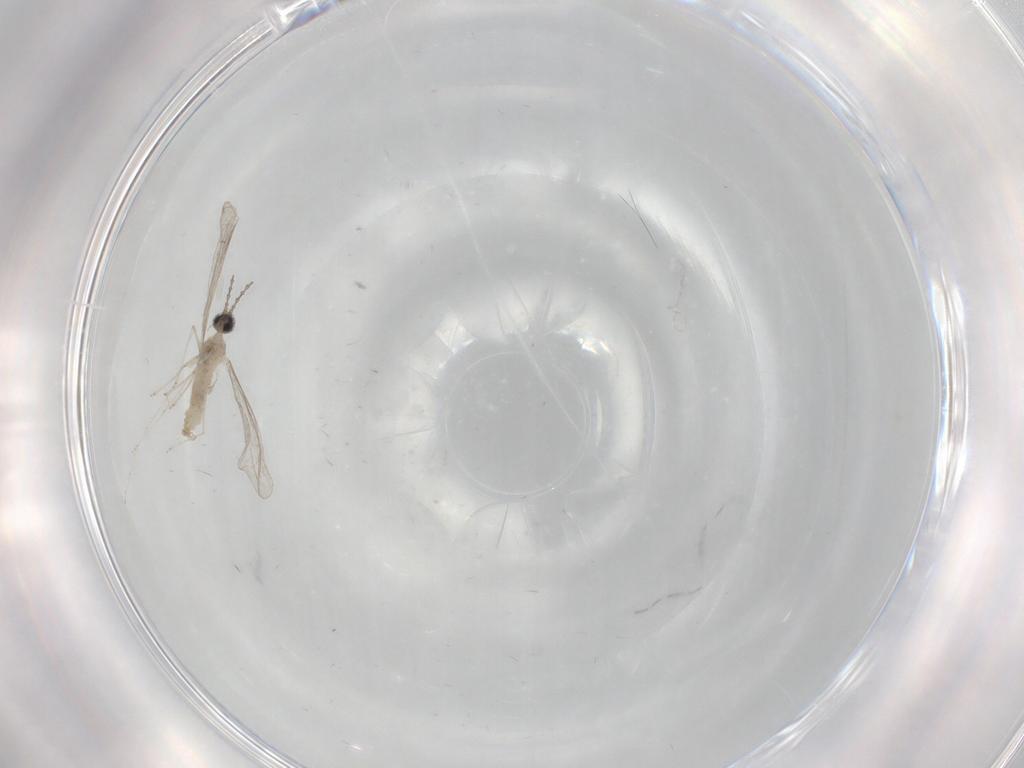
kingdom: Animalia
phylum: Arthropoda
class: Insecta
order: Diptera
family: Cecidomyiidae
